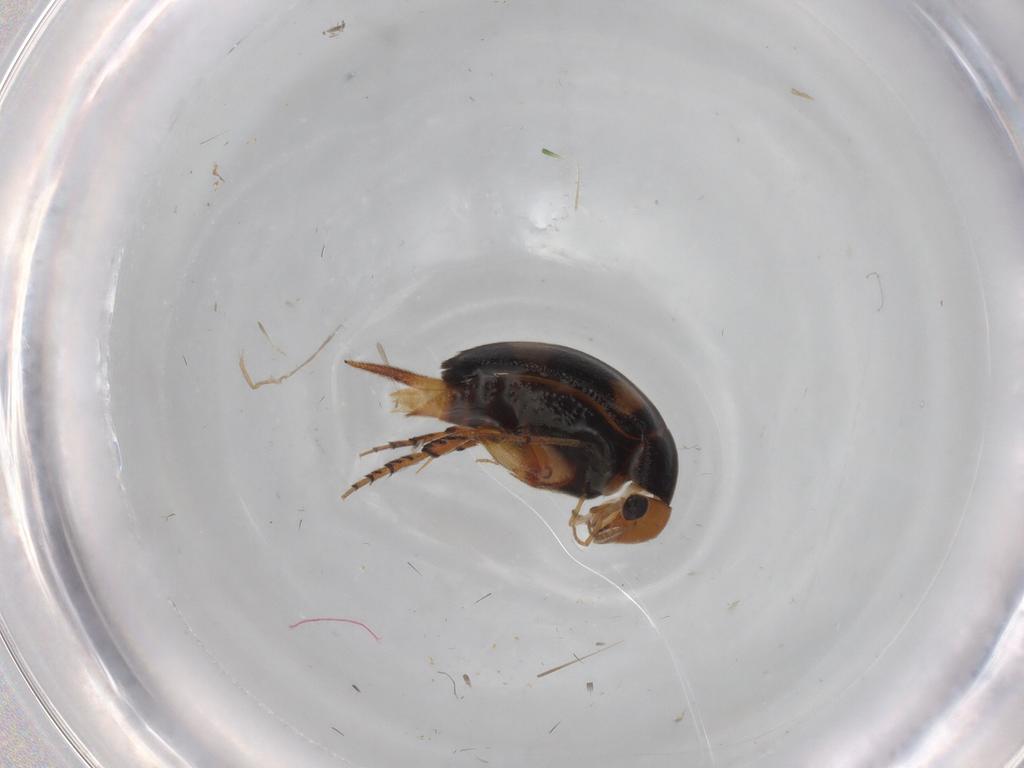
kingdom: Animalia
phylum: Arthropoda
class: Insecta
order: Coleoptera
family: Mordellidae
